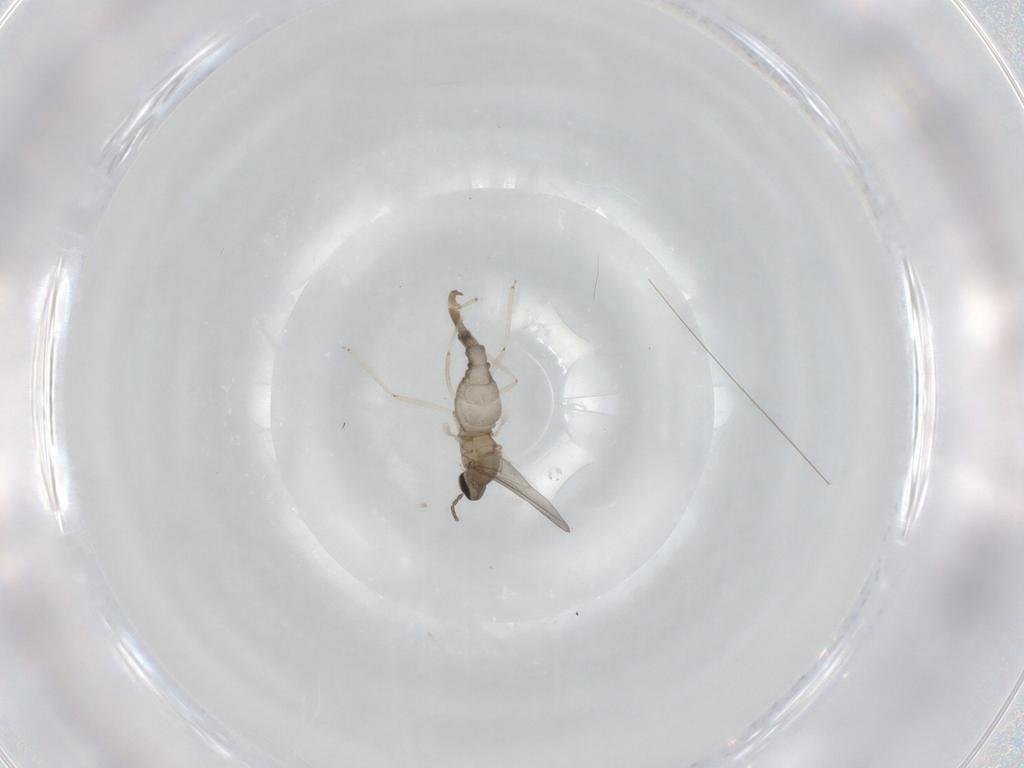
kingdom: Animalia
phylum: Arthropoda
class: Insecta
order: Diptera
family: Cecidomyiidae
